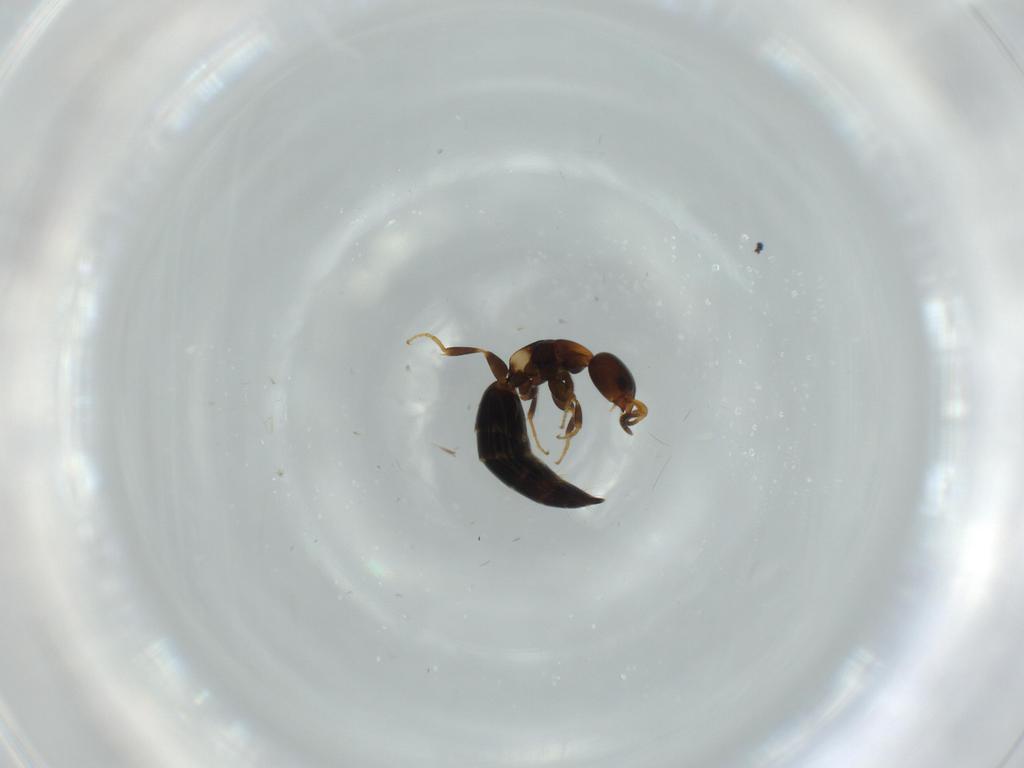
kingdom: Animalia
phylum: Arthropoda
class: Insecta
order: Hymenoptera
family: Bethylidae
